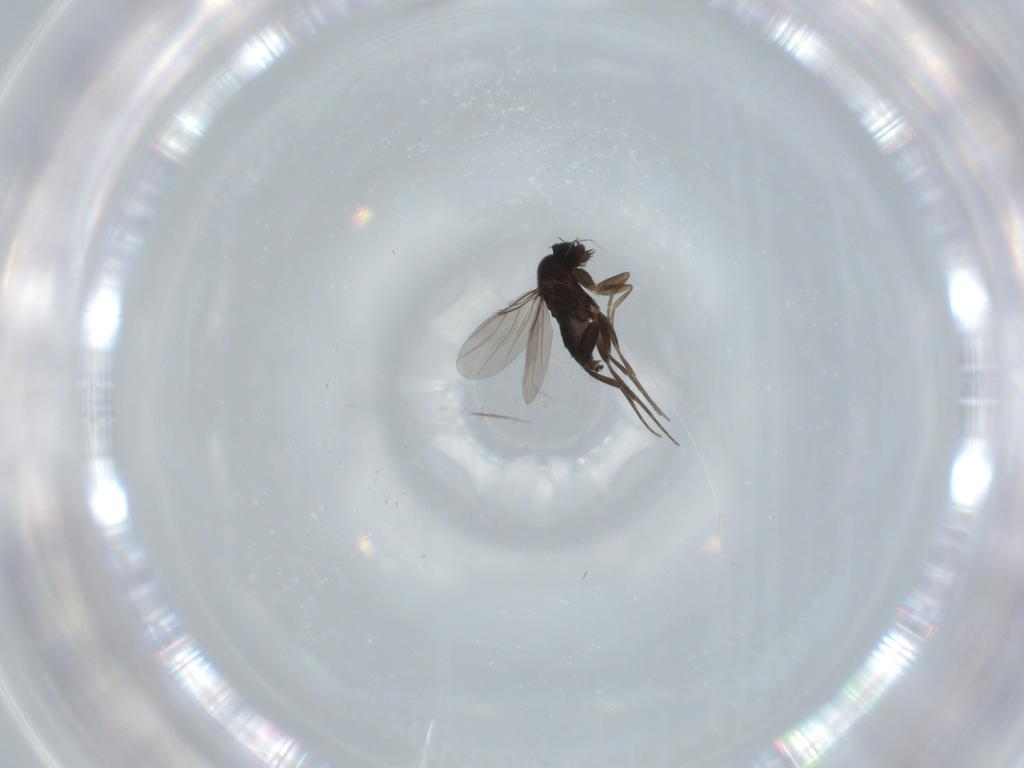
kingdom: Animalia
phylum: Arthropoda
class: Insecta
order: Diptera
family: Phoridae
